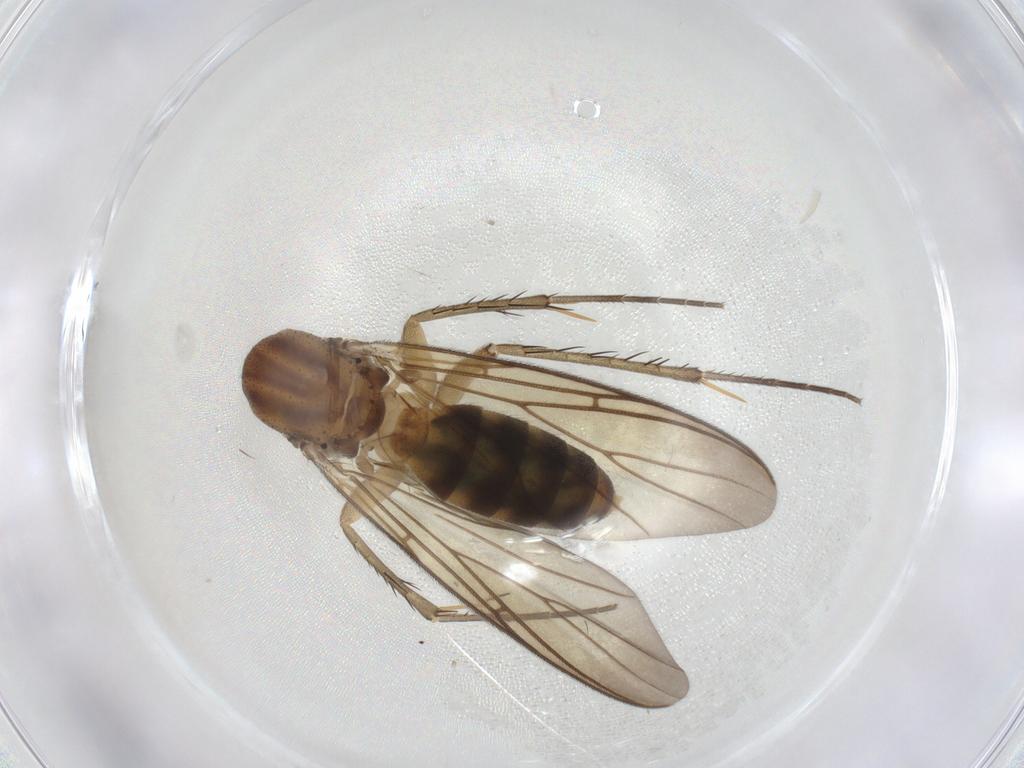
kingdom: Animalia
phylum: Arthropoda
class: Insecta
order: Diptera
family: Mycetophilidae
